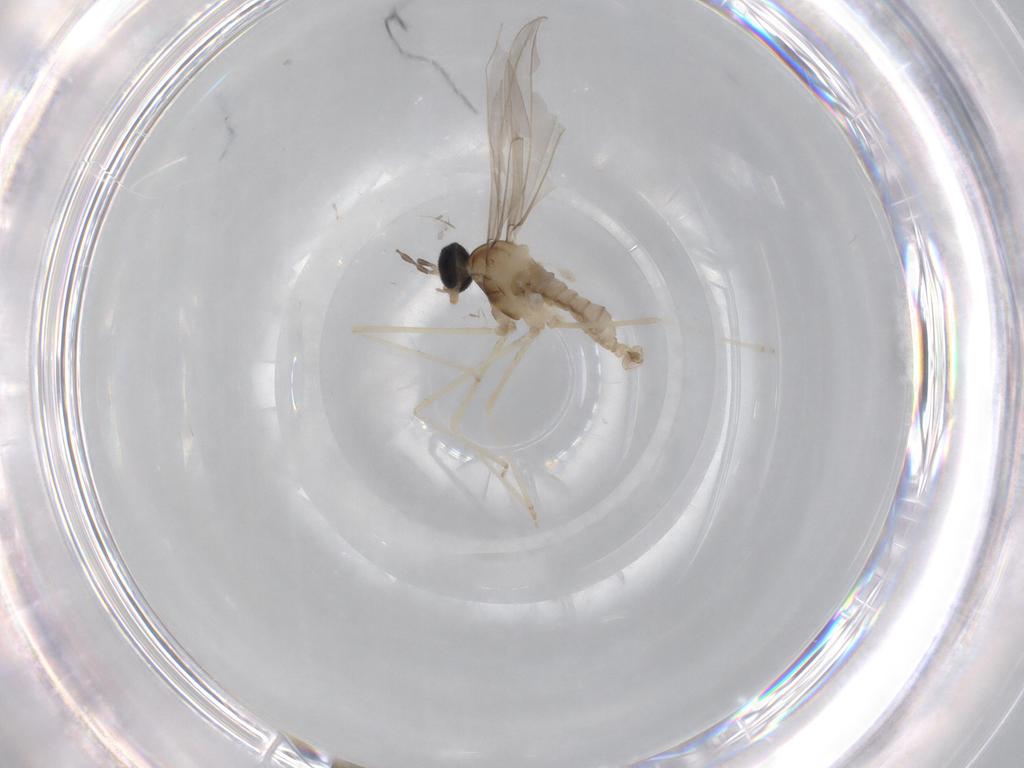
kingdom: Animalia
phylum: Arthropoda
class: Insecta
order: Diptera
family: Cecidomyiidae
